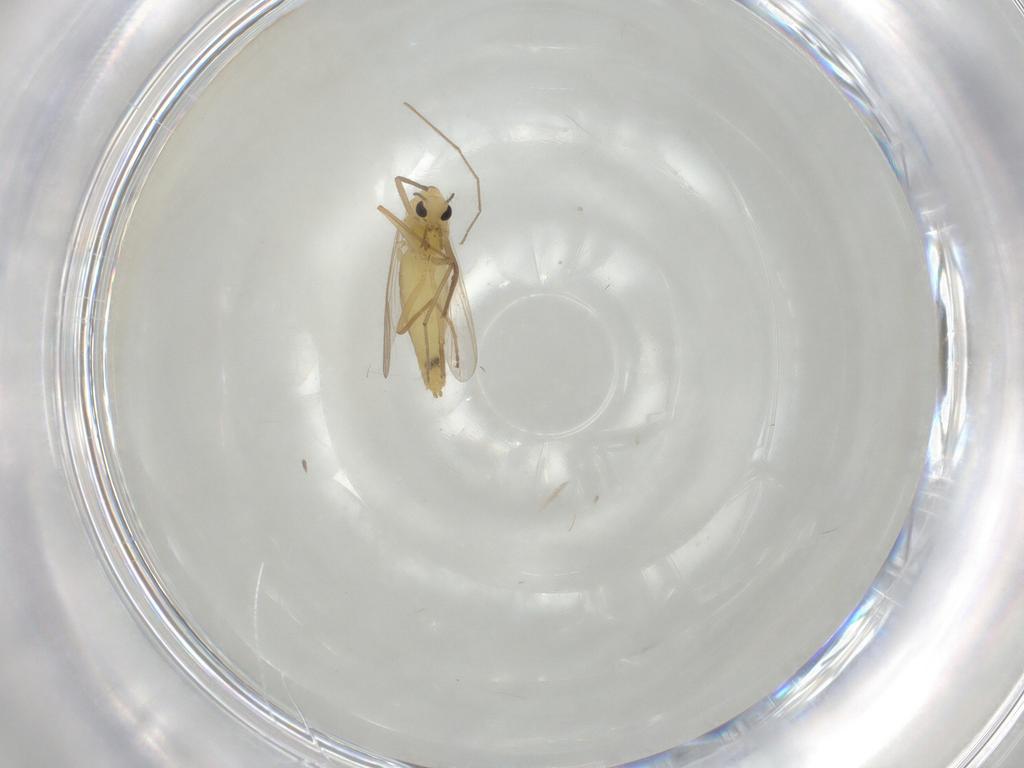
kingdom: Animalia
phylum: Arthropoda
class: Insecta
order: Diptera
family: Chironomidae
